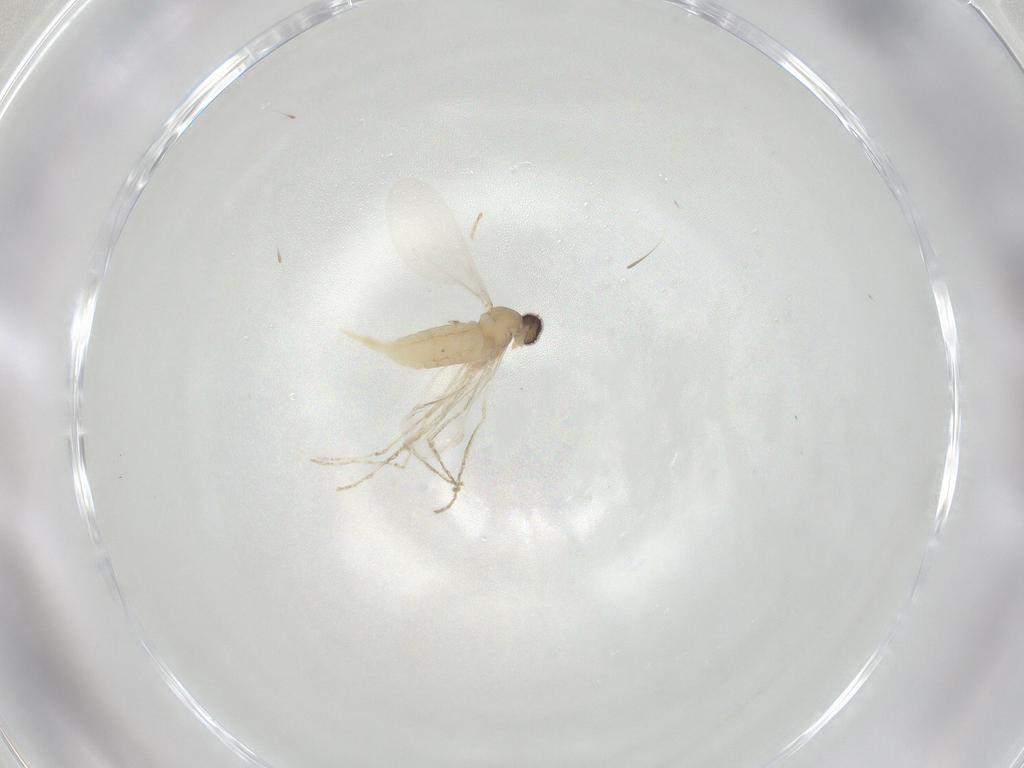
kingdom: Animalia
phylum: Arthropoda
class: Insecta
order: Diptera
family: Cecidomyiidae
